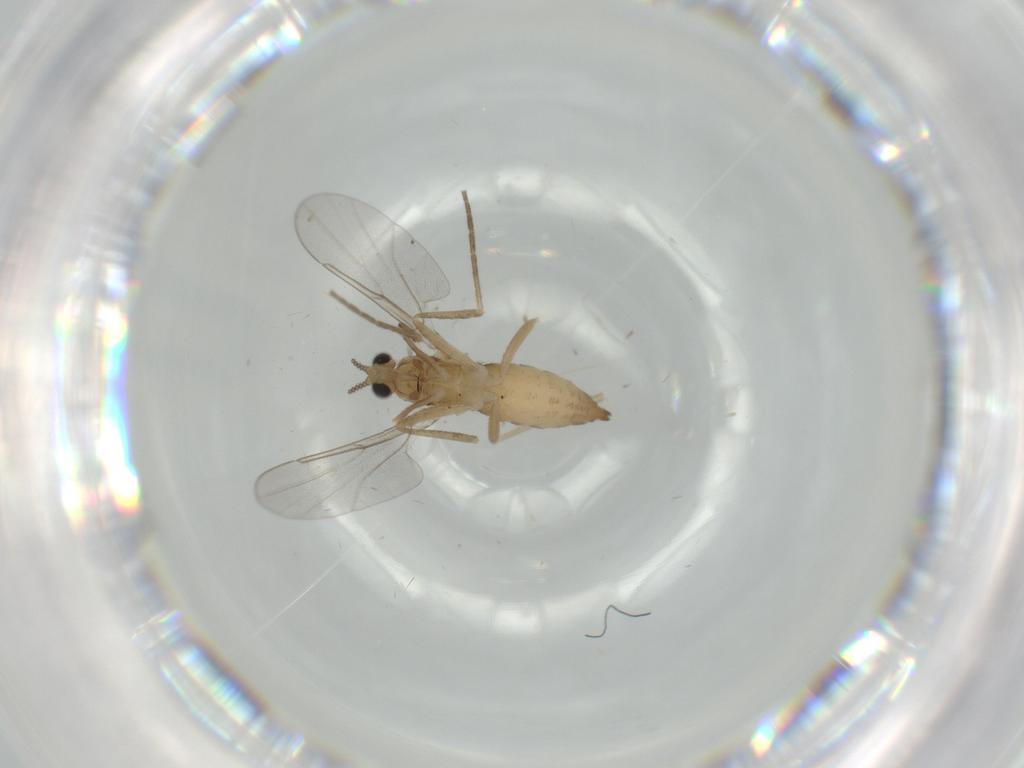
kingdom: Animalia
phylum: Arthropoda
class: Insecta
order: Diptera
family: Cecidomyiidae
